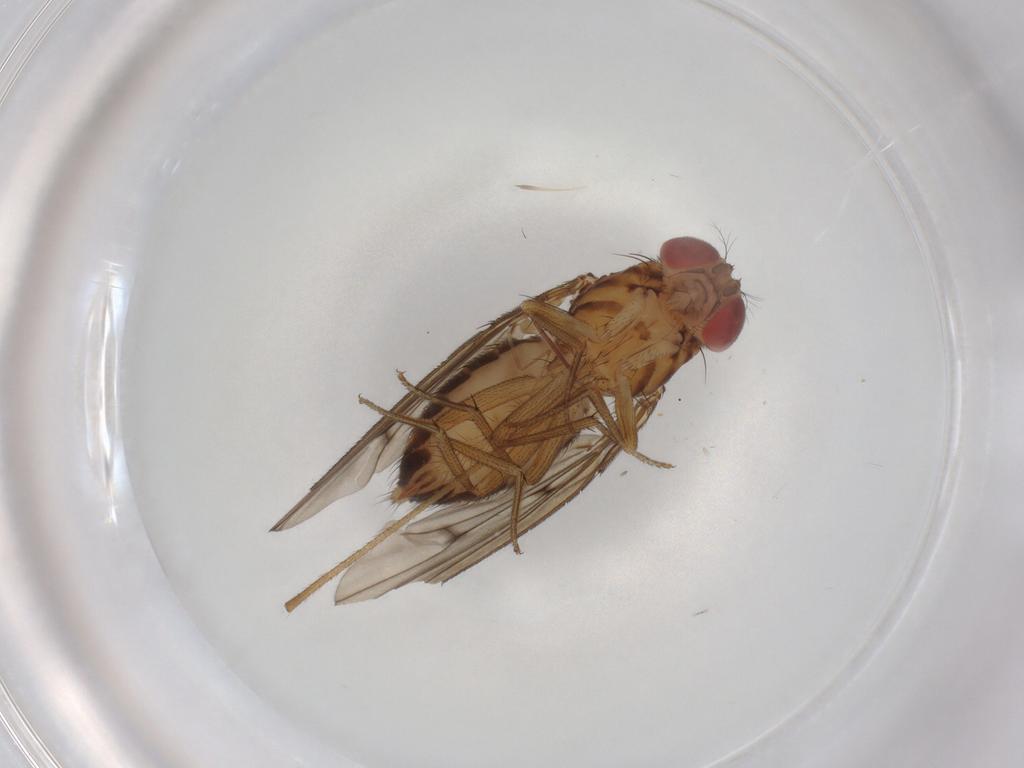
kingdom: Animalia
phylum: Arthropoda
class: Insecta
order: Diptera
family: Drosophilidae
